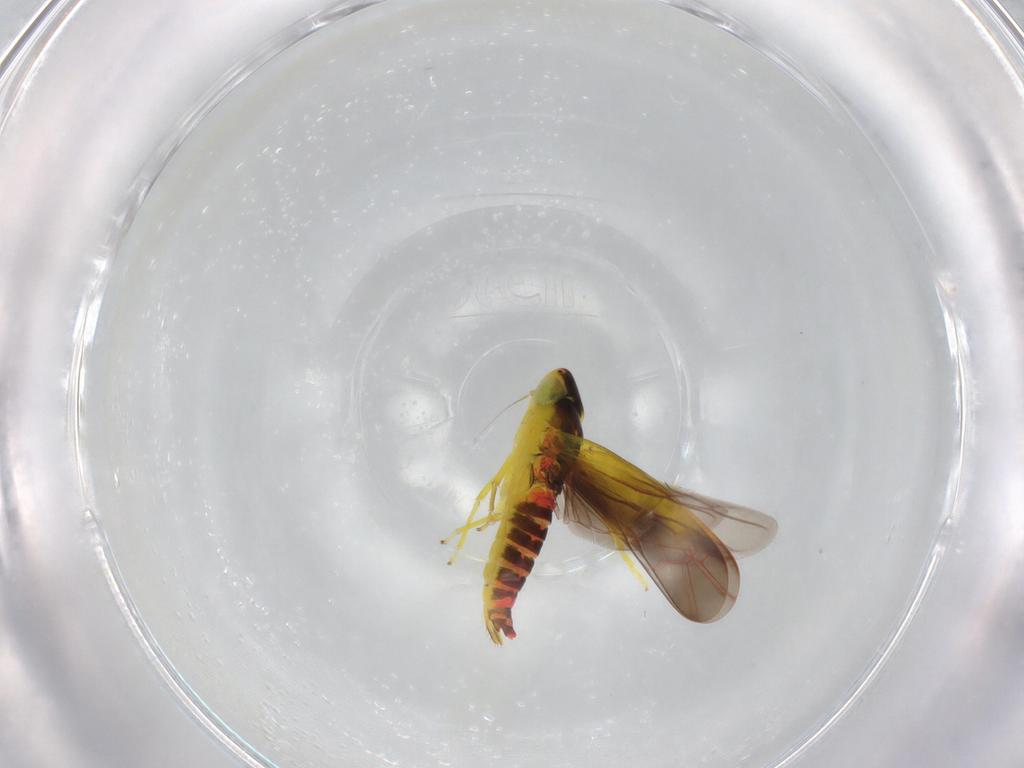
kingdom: Animalia
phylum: Arthropoda
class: Insecta
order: Hemiptera
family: Cicadellidae
